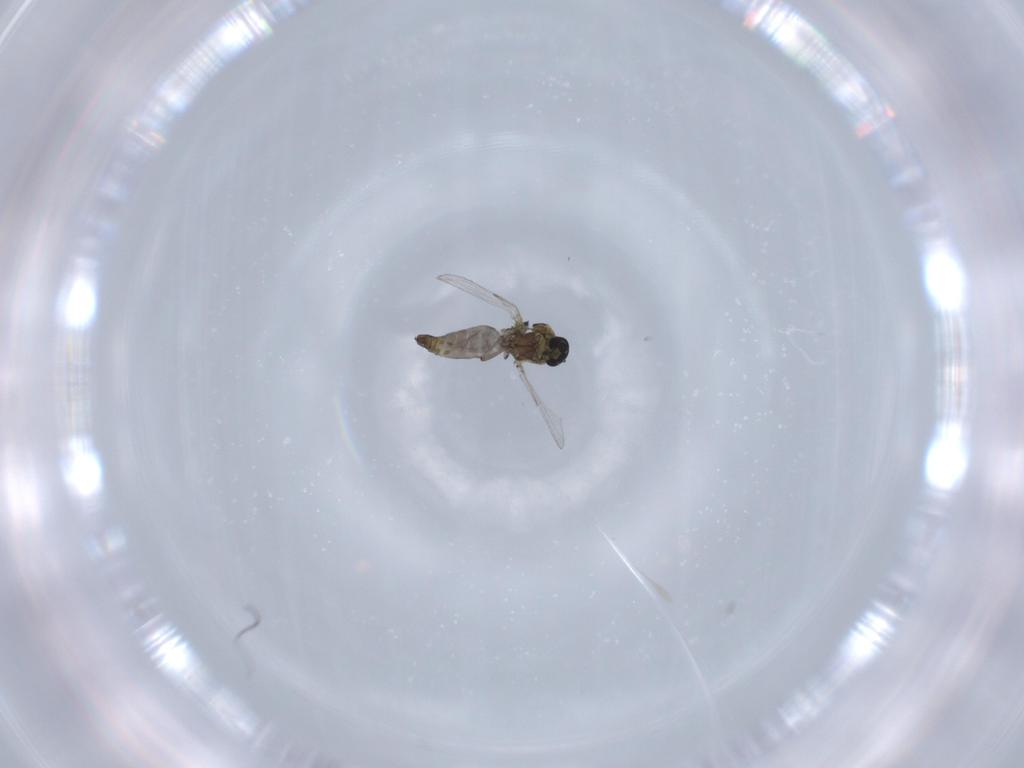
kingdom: Animalia
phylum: Arthropoda
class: Insecta
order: Diptera
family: Ceratopogonidae
